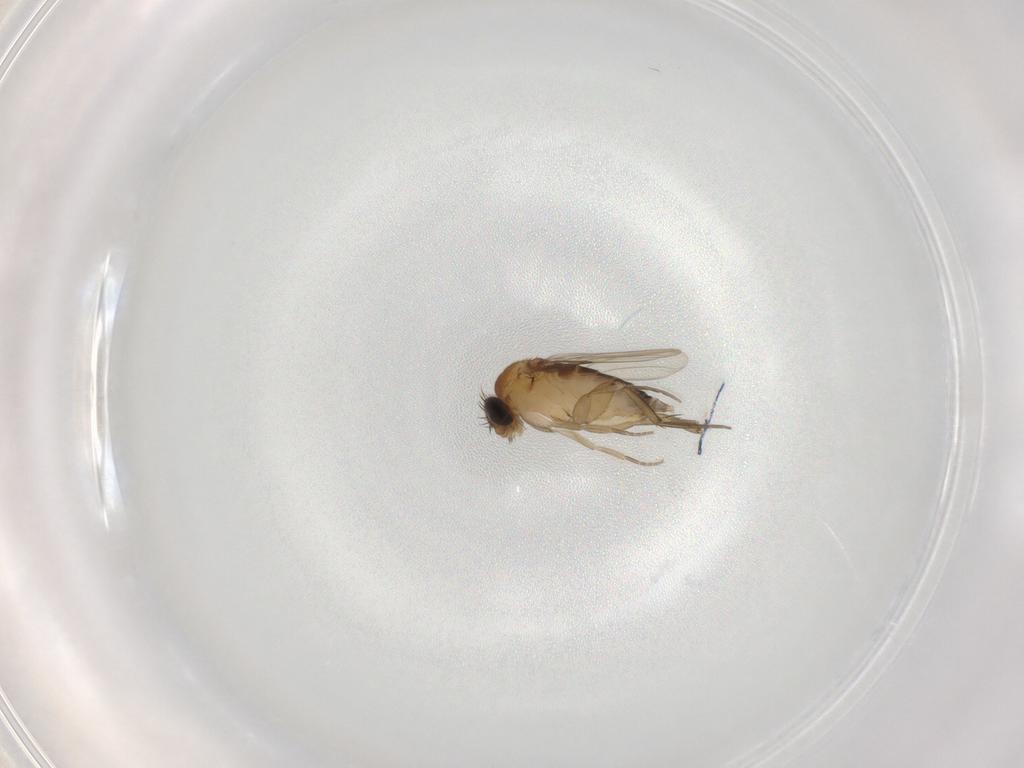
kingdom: Animalia
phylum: Arthropoda
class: Insecta
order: Diptera
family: Phoridae
